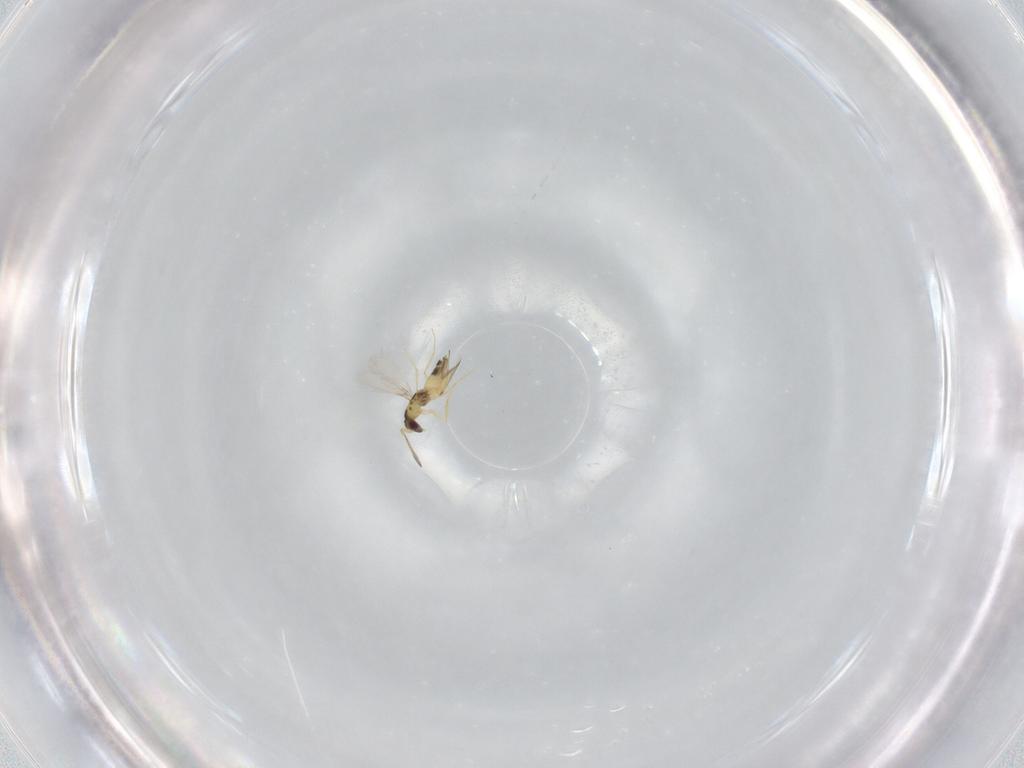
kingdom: Animalia
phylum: Arthropoda
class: Insecta
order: Hymenoptera
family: Mymaridae
